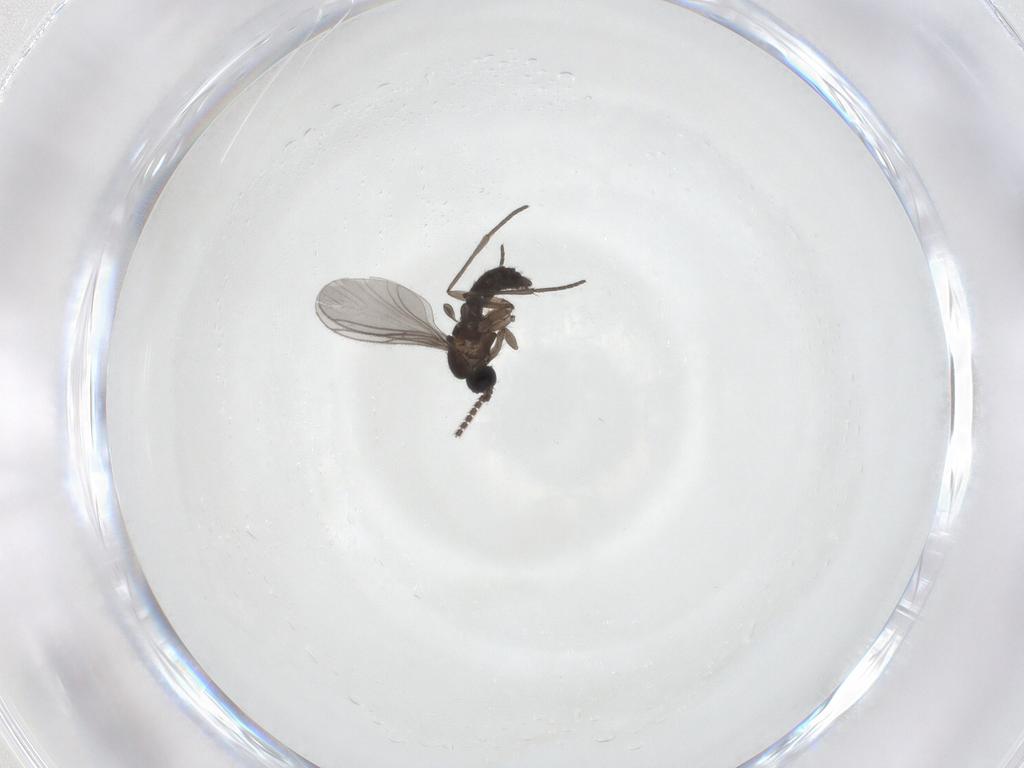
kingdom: Animalia
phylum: Arthropoda
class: Insecta
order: Diptera
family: Sciaridae
